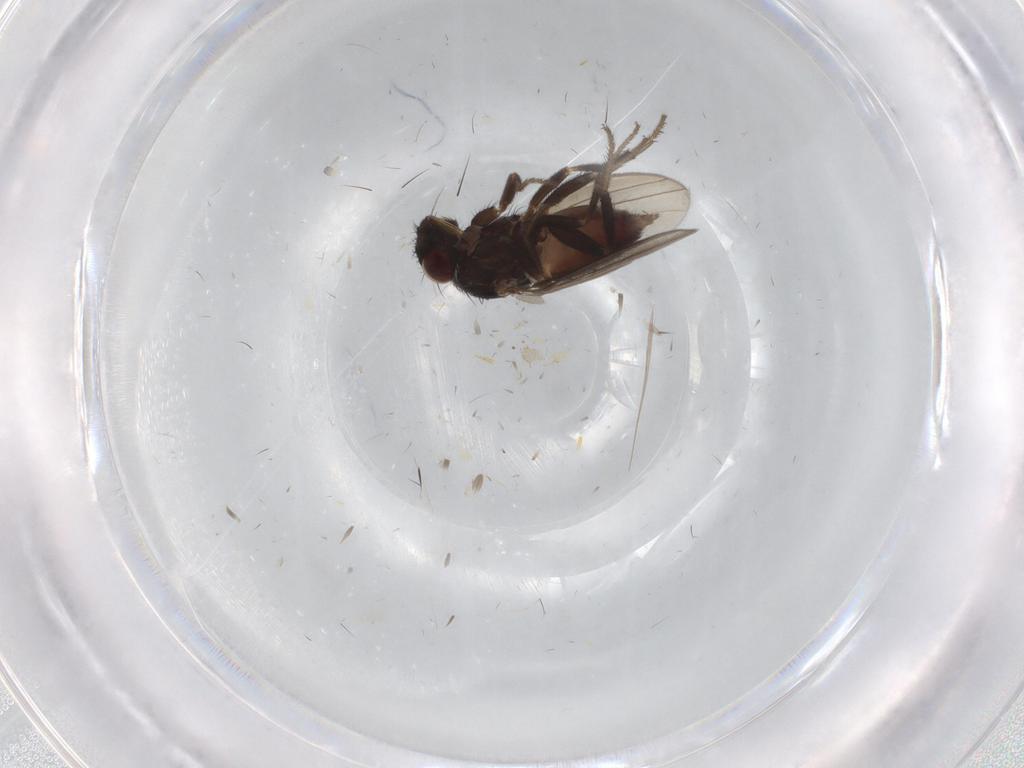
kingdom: Animalia
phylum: Arthropoda
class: Insecta
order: Diptera
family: Milichiidae
